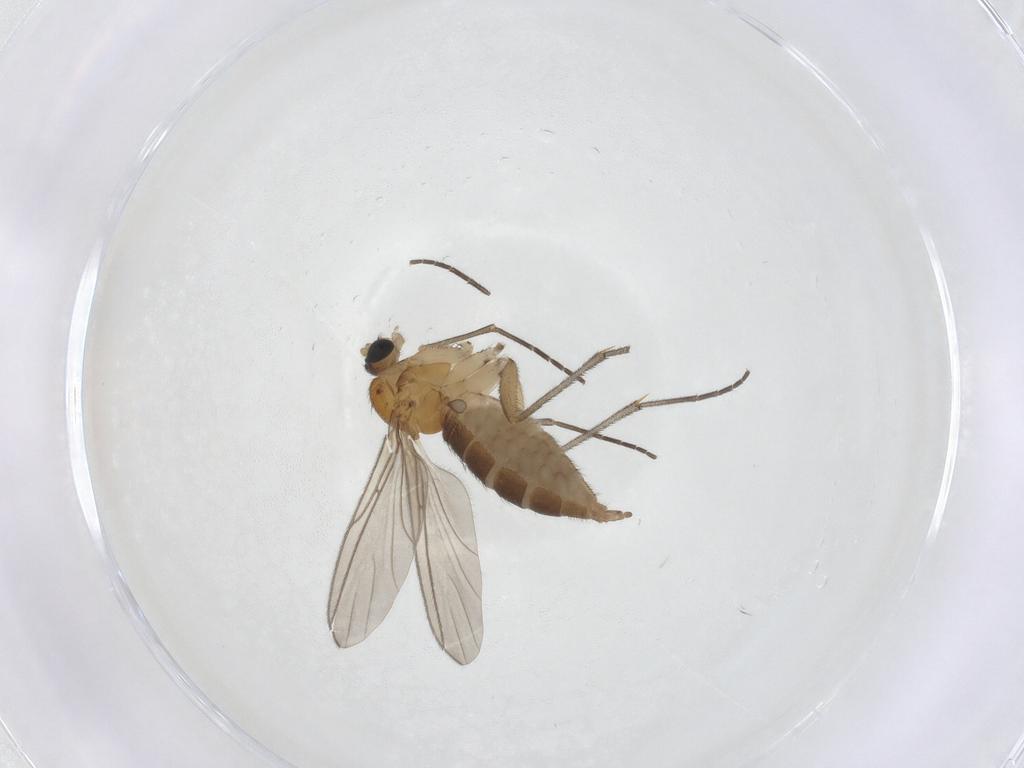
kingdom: Animalia
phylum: Arthropoda
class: Insecta
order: Diptera
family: Sciaridae
